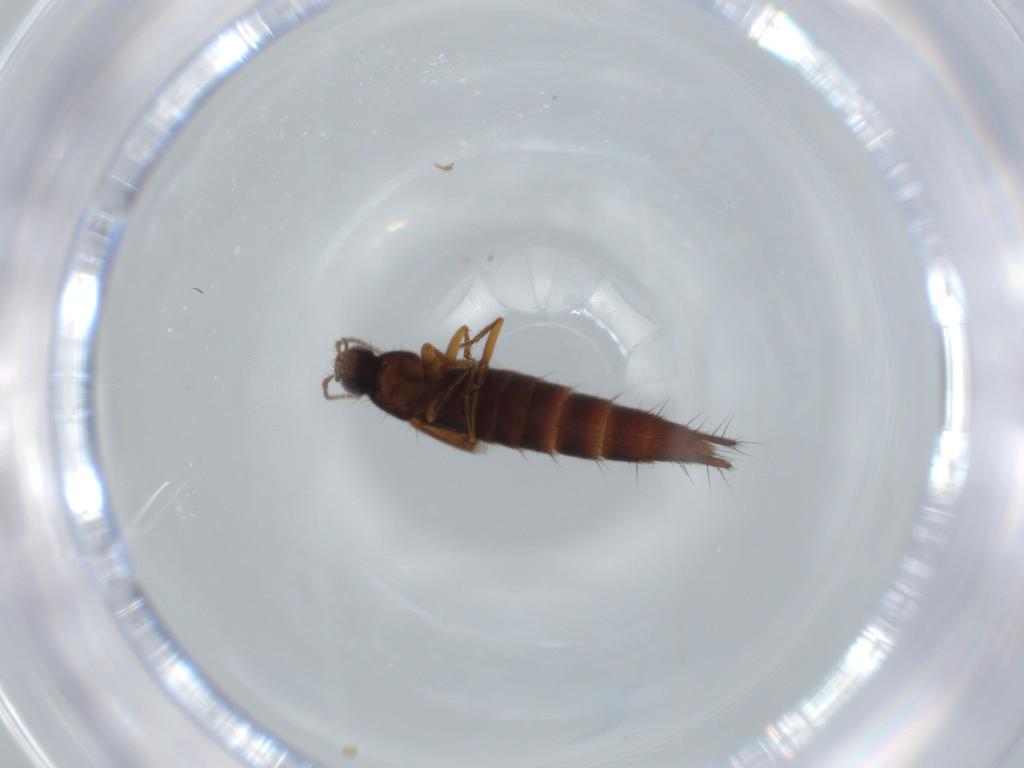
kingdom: Animalia
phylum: Arthropoda
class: Insecta
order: Coleoptera
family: Staphylinidae
